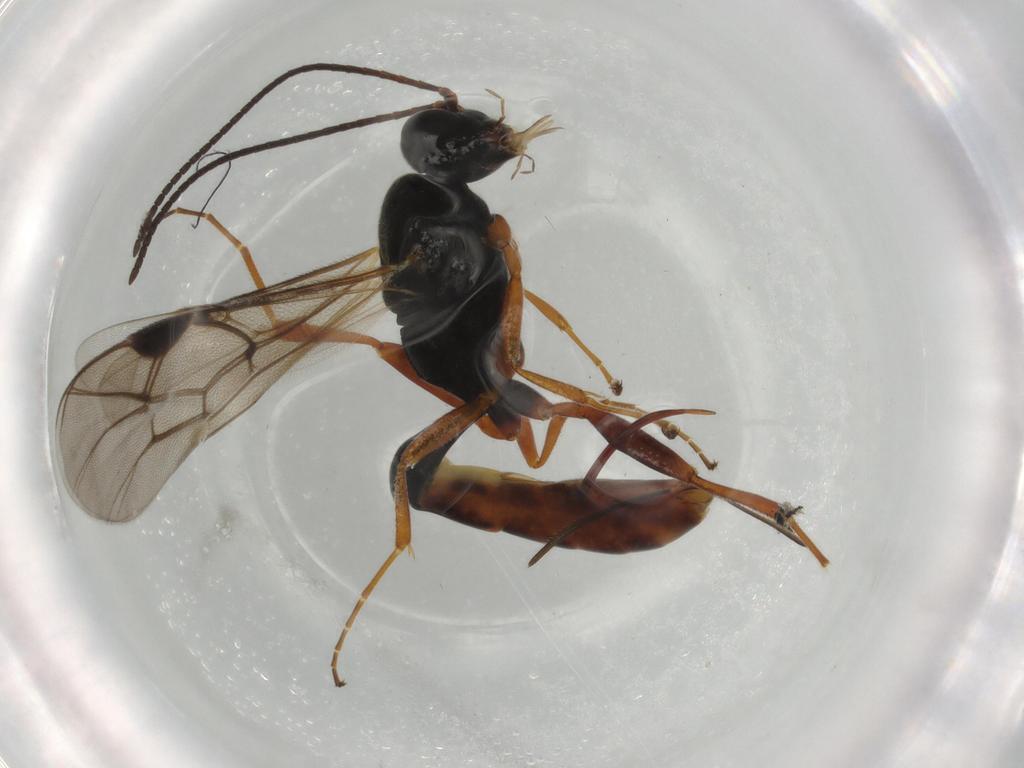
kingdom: Animalia
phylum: Arthropoda
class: Insecta
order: Hymenoptera
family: Ichneumonidae
